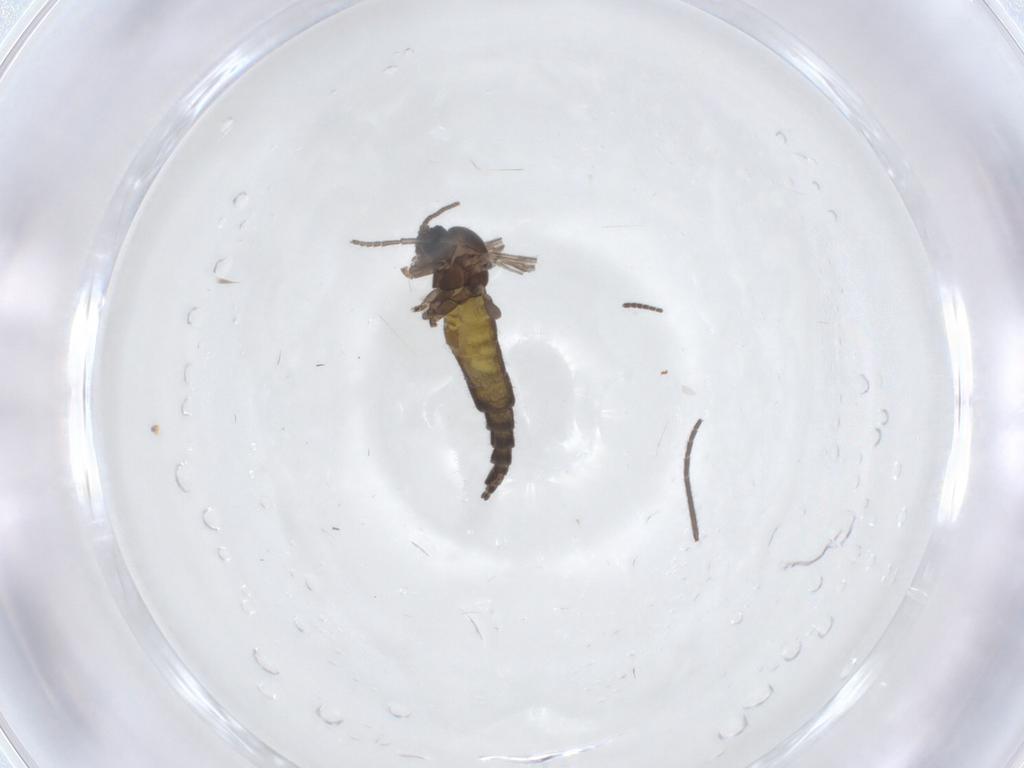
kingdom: Animalia
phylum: Arthropoda
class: Insecta
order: Diptera
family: Sciaridae
